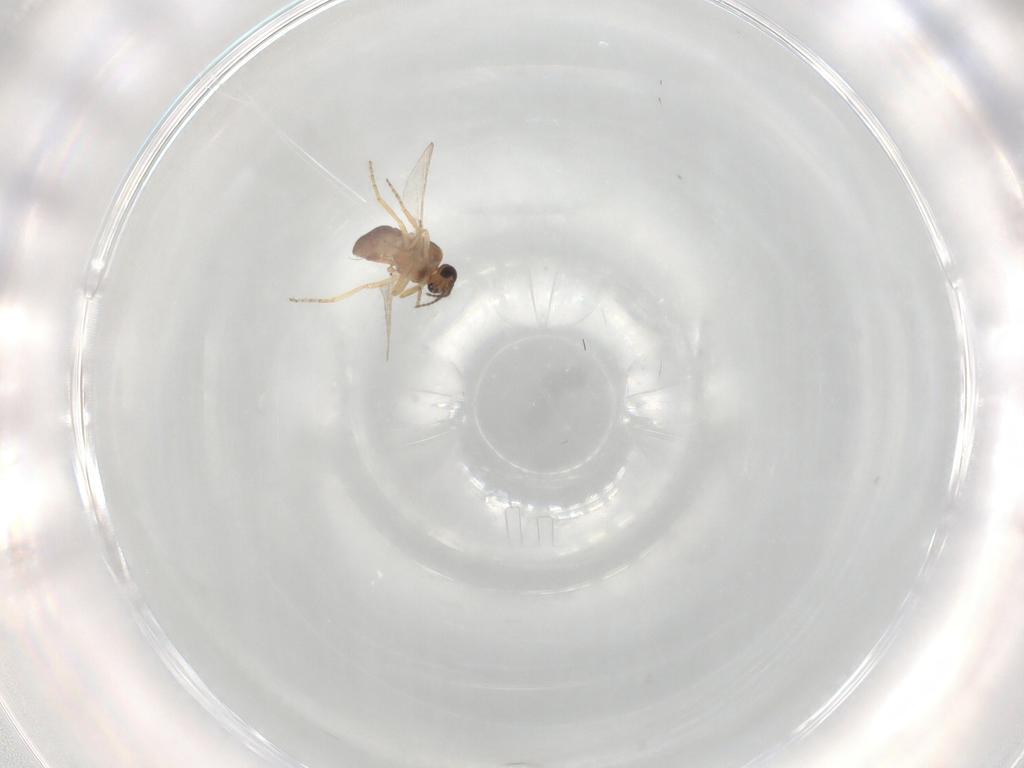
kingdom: Animalia
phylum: Arthropoda
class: Insecta
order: Diptera
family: Ceratopogonidae
